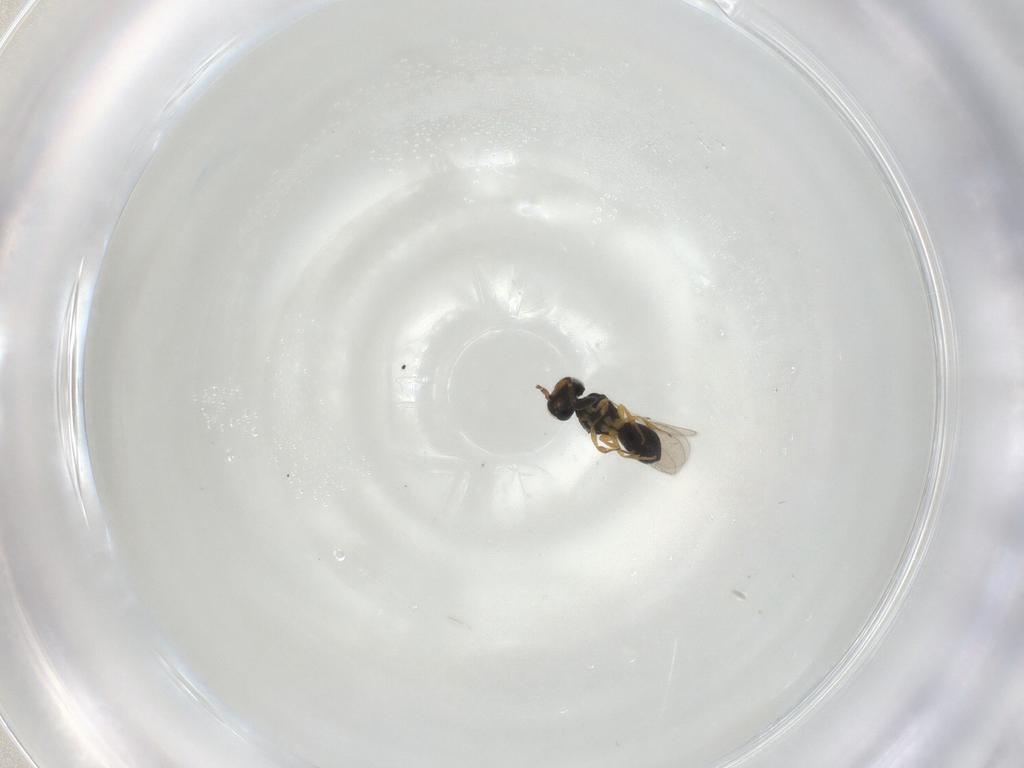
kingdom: Animalia
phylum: Arthropoda
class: Insecta
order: Hymenoptera
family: Scelionidae
